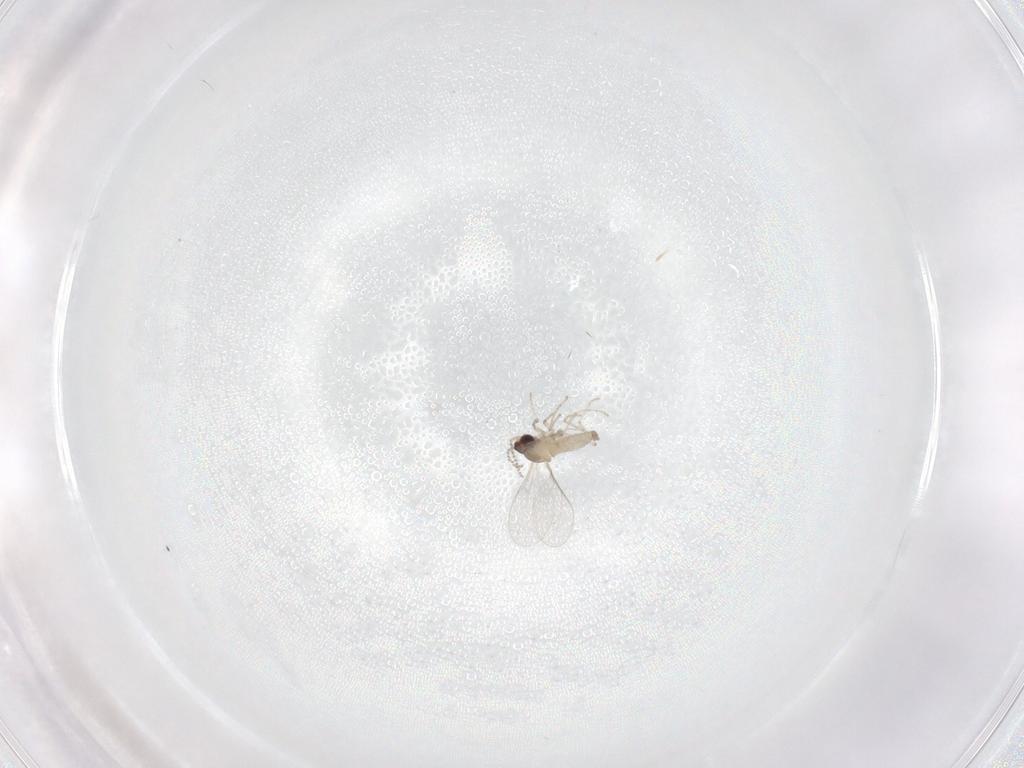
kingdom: Animalia
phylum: Arthropoda
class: Insecta
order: Diptera
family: Cecidomyiidae
